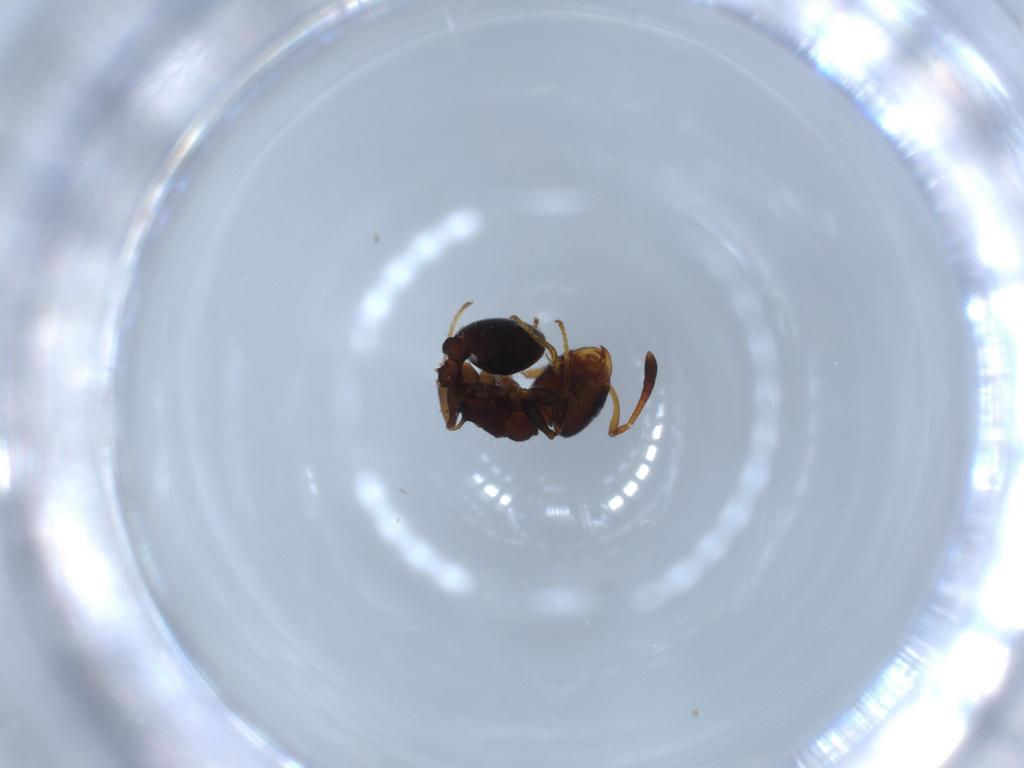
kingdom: Animalia
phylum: Arthropoda
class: Insecta
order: Hymenoptera
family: Formicidae
